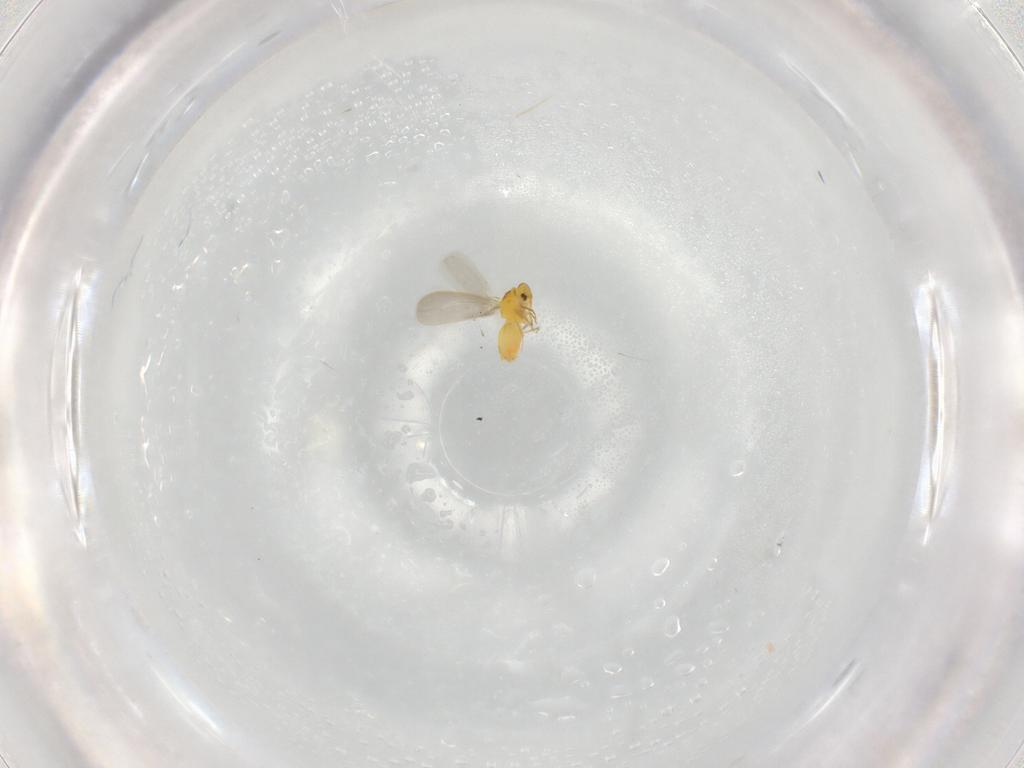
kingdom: Animalia
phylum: Arthropoda
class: Insecta
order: Hemiptera
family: Aleyrodidae
